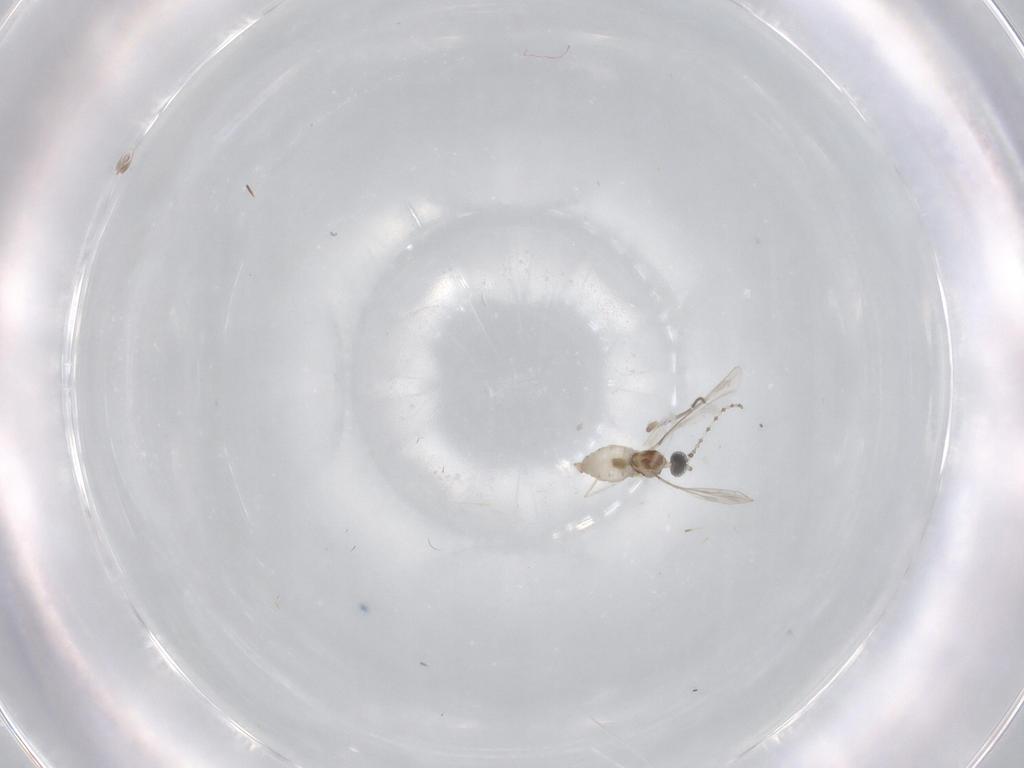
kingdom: Animalia
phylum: Arthropoda
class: Insecta
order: Diptera
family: Cecidomyiidae
